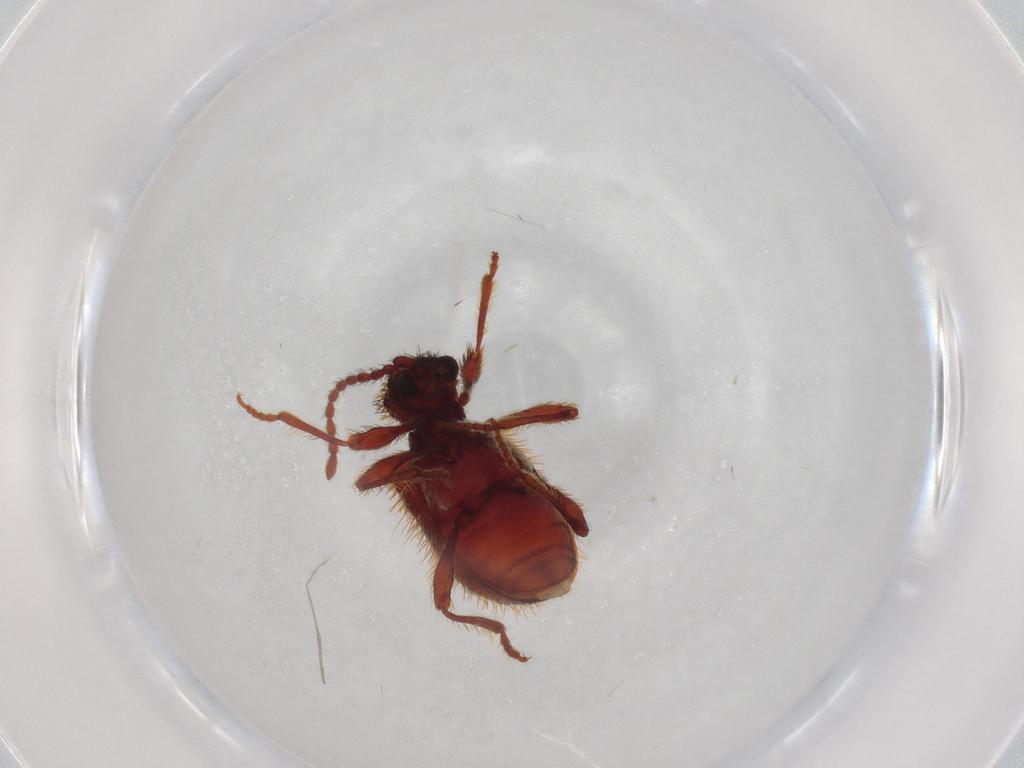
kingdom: Animalia
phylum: Arthropoda
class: Insecta
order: Coleoptera
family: Ptinidae
